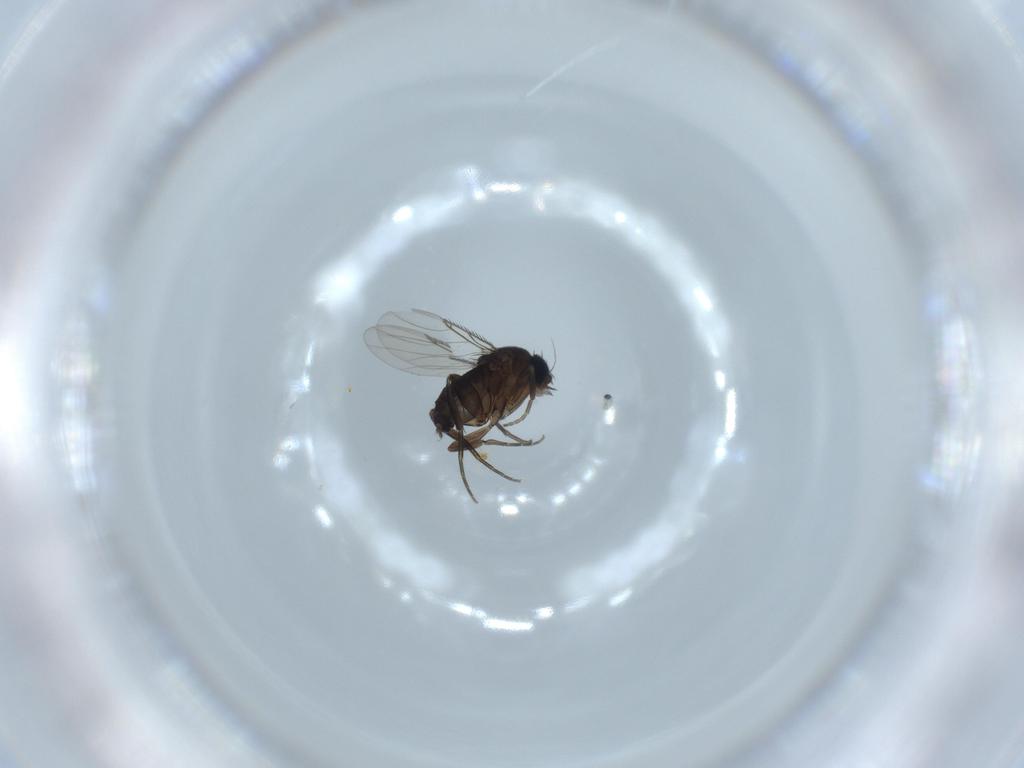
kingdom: Animalia
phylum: Arthropoda
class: Insecta
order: Diptera
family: Phoridae
